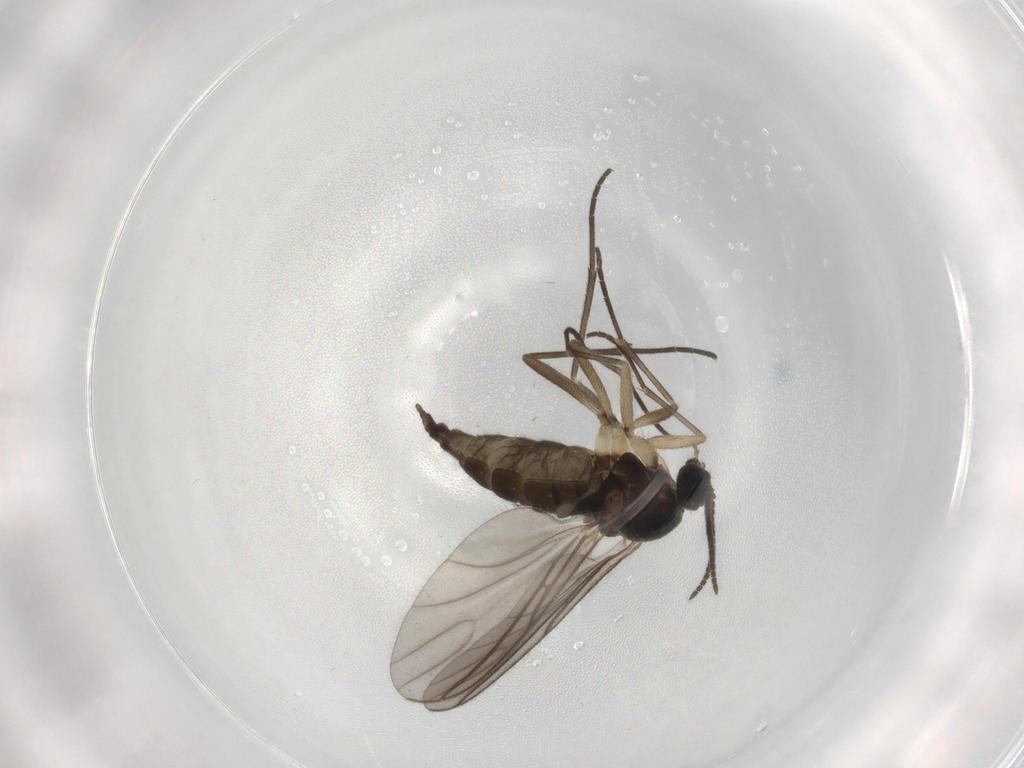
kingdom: Animalia
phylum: Arthropoda
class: Insecta
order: Diptera
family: Sciaridae
